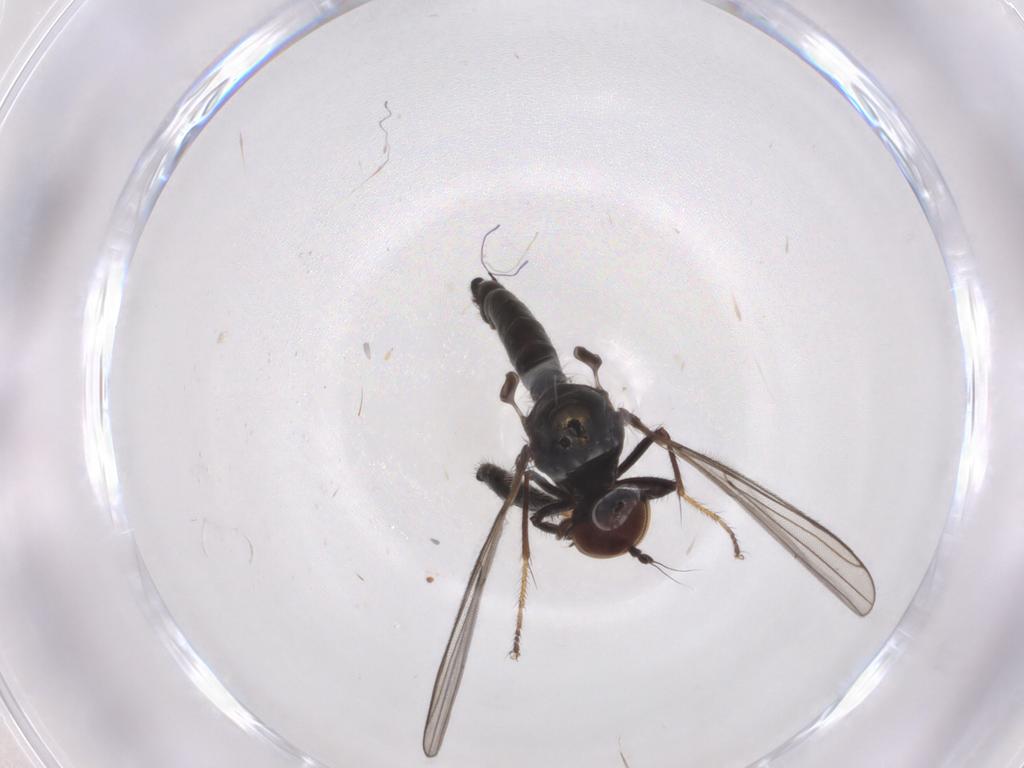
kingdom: Animalia
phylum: Arthropoda
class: Insecta
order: Diptera
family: Hybotidae
